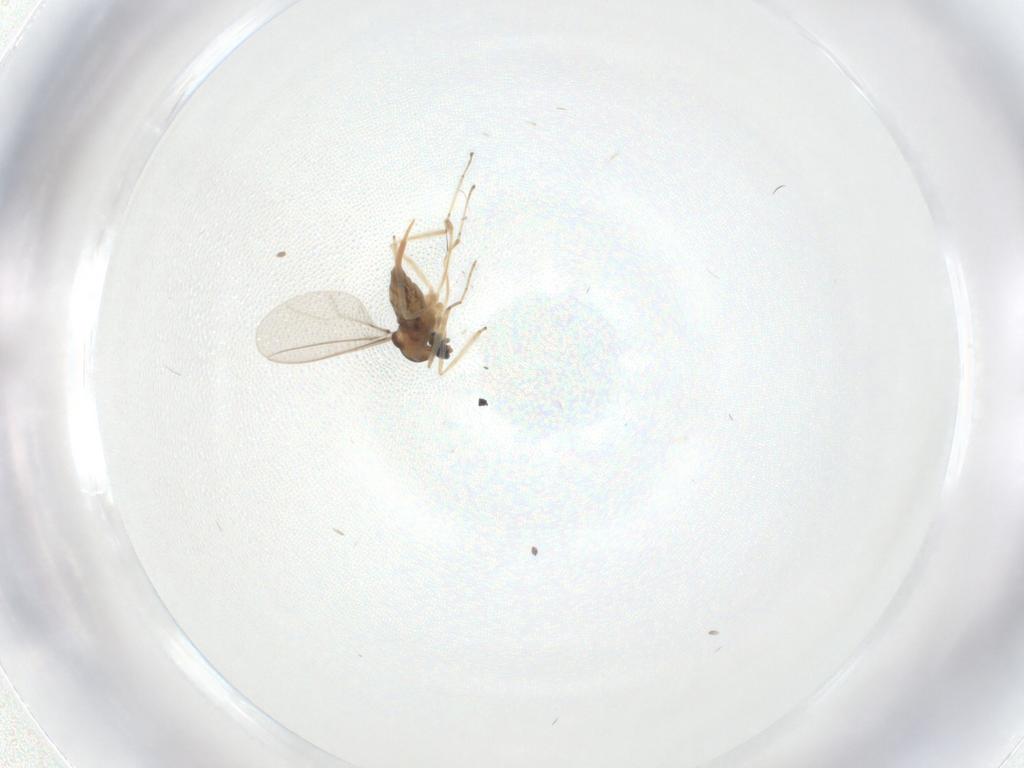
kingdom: Animalia
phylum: Arthropoda
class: Insecta
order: Diptera
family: Cecidomyiidae
